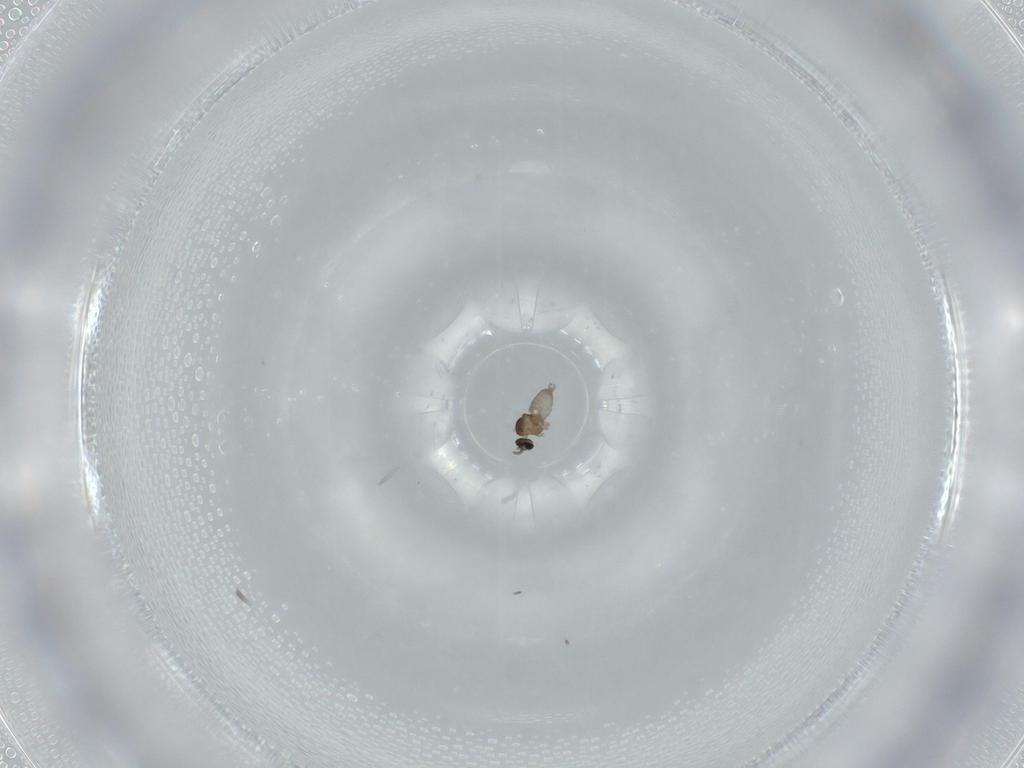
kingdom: Animalia
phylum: Arthropoda
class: Insecta
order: Diptera
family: Cecidomyiidae
